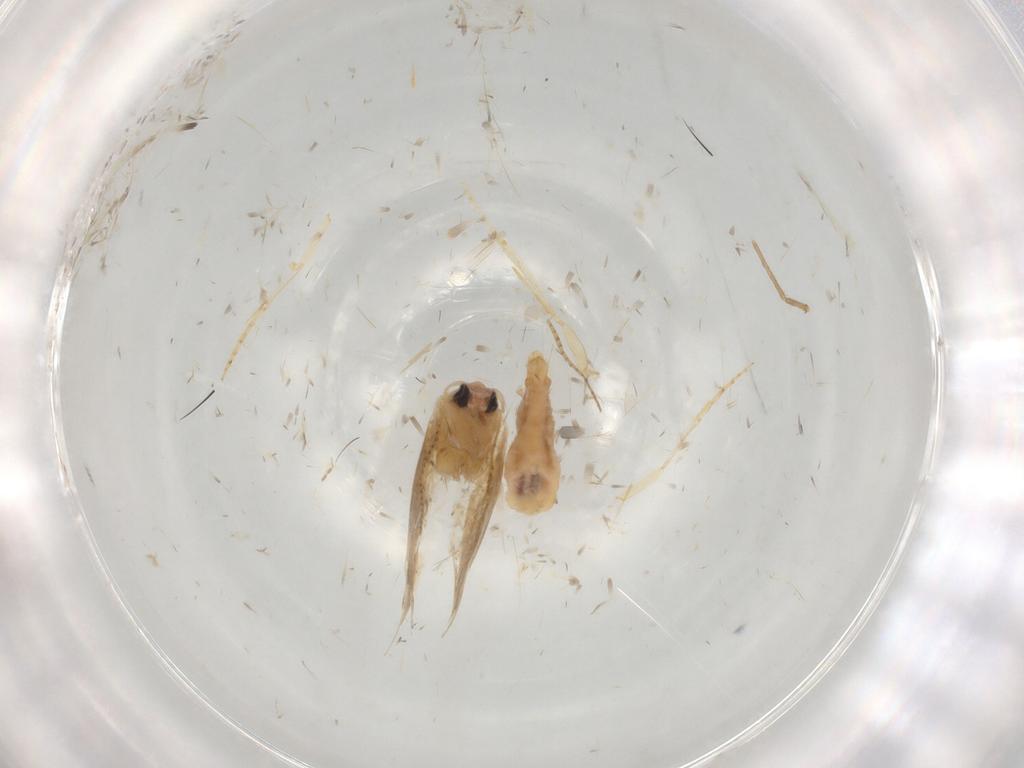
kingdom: Animalia
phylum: Arthropoda
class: Insecta
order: Lepidoptera
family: Bucculatricidae
